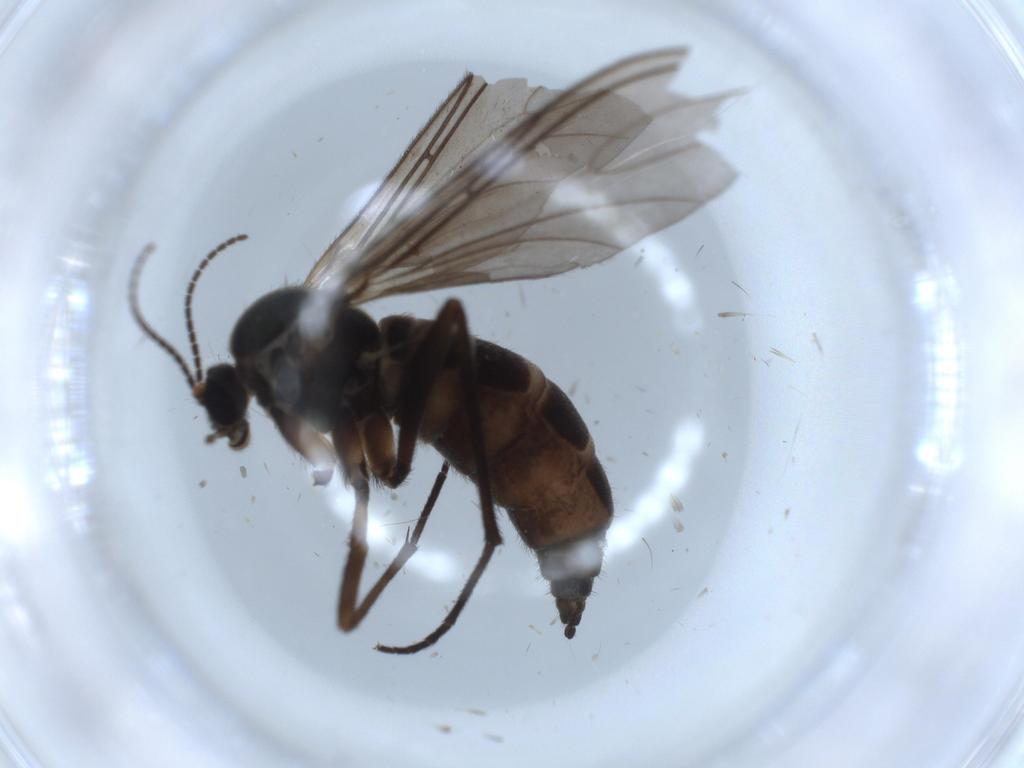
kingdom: Animalia
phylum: Arthropoda
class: Insecta
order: Diptera
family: Sciaridae
